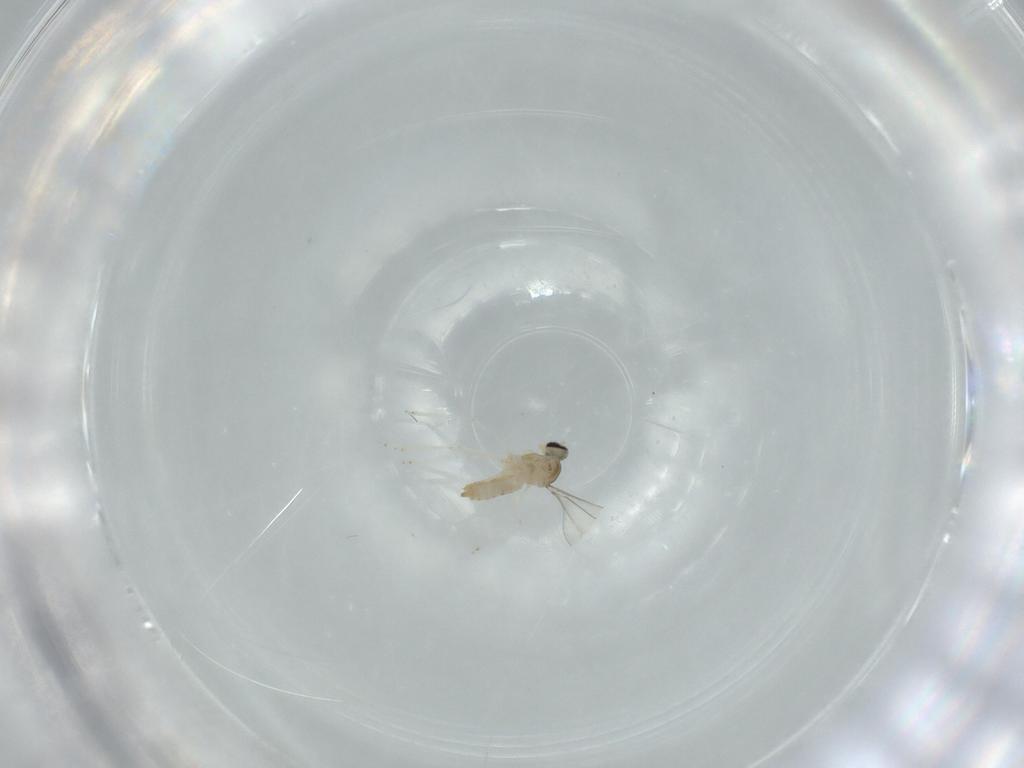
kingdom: Animalia
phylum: Arthropoda
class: Insecta
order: Diptera
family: Cecidomyiidae
